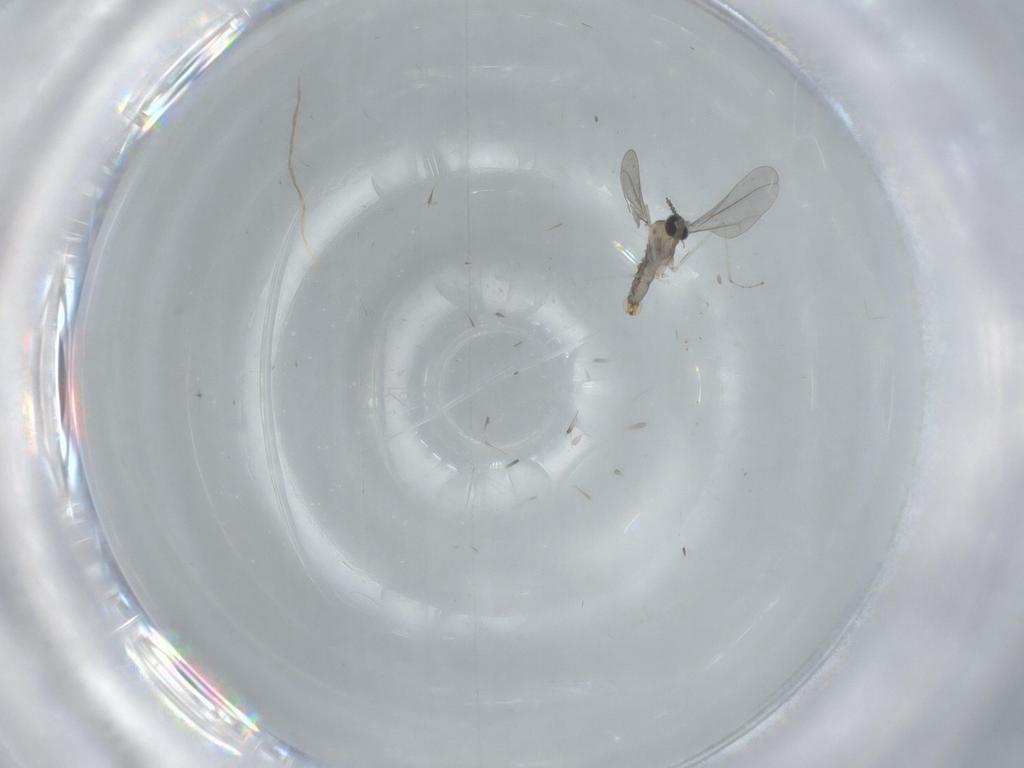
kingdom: Animalia
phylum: Arthropoda
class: Insecta
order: Diptera
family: Cecidomyiidae
